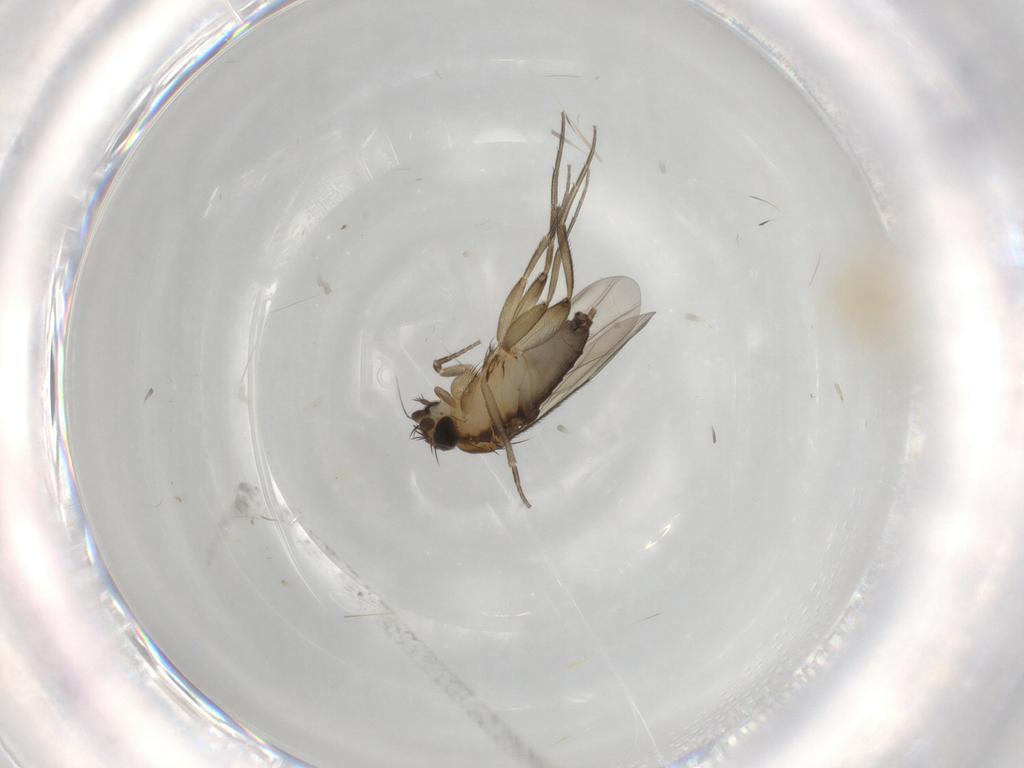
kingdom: Animalia
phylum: Arthropoda
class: Insecta
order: Diptera
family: Phoridae
